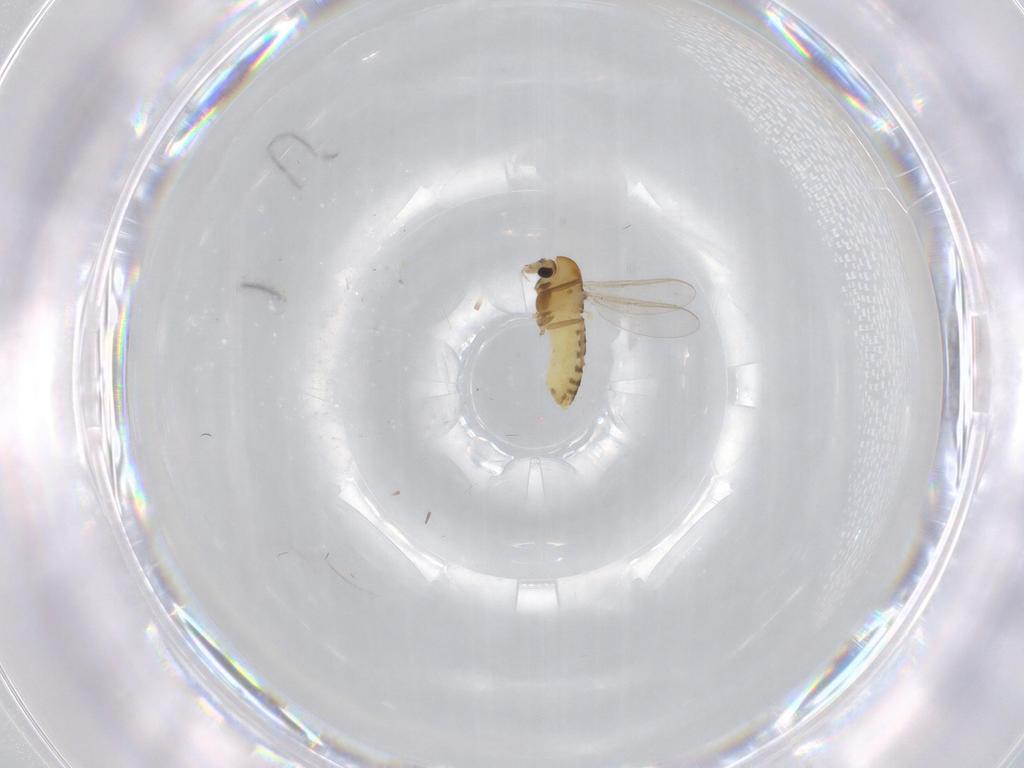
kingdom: Animalia
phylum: Arthropoda
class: Insecta
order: Diptera
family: Chironomidae
